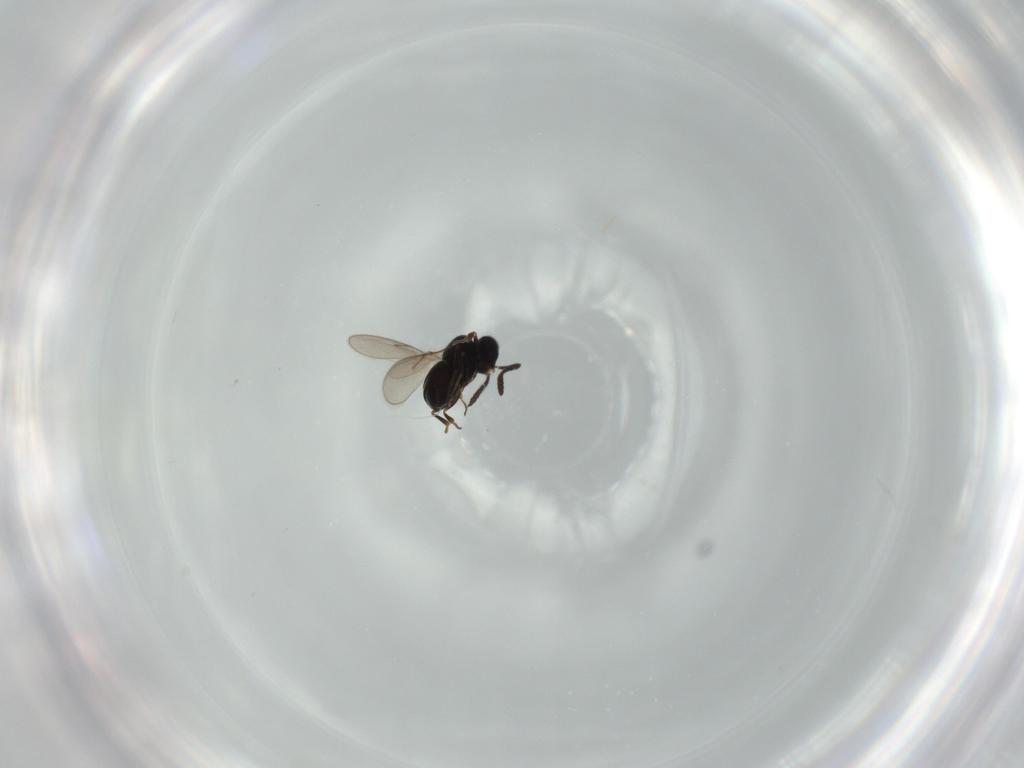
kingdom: Animalia
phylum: Arthropoda
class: Insecta
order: Hymenoptera
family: Scelionidae
